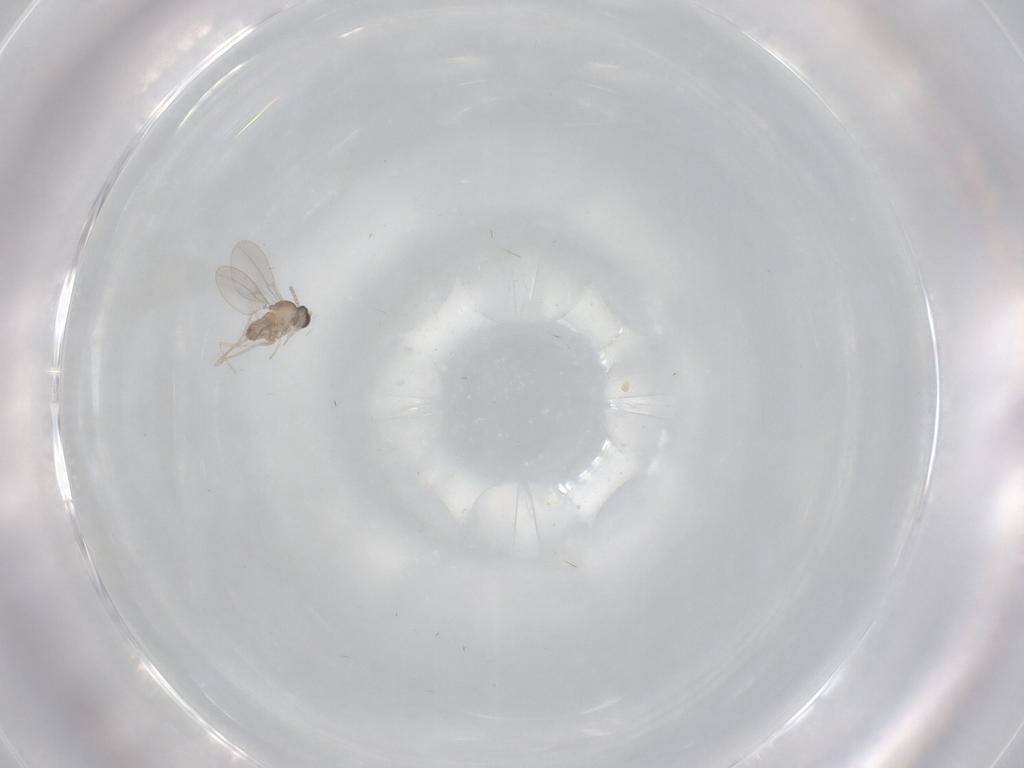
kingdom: Animalia
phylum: Arthropoda
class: Insecta
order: Diptera
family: Cecidomyiidae
